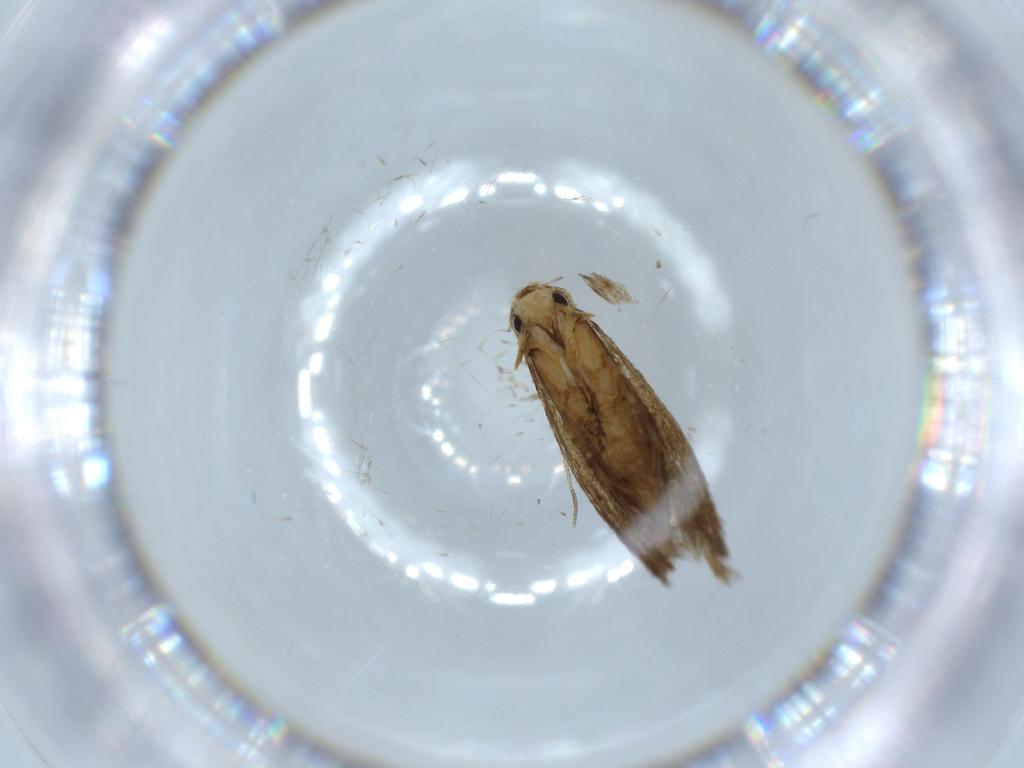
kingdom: Animalia
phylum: Arthropoda
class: Insecta
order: Lepidoptera
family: Tineidae
